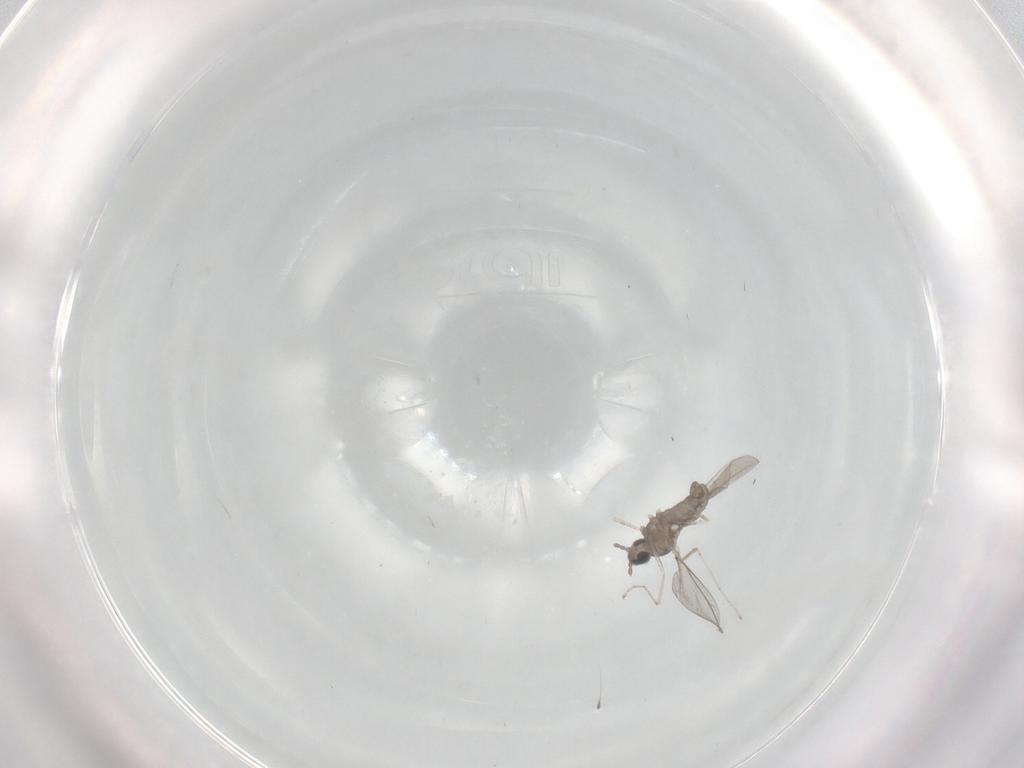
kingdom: Animalia
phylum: Arthropoda
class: Insecta
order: Diptera
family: Cecidomyiidae
